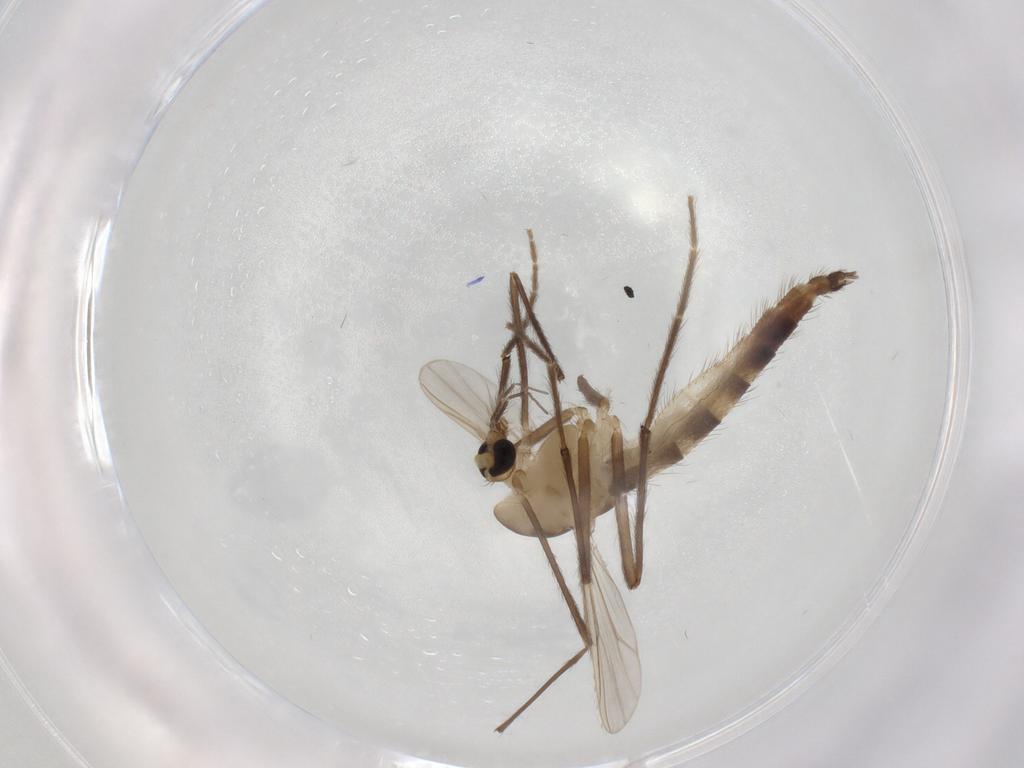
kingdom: Animalia
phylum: Arthropoda
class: Insecta
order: Diptera
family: Chironomidae
